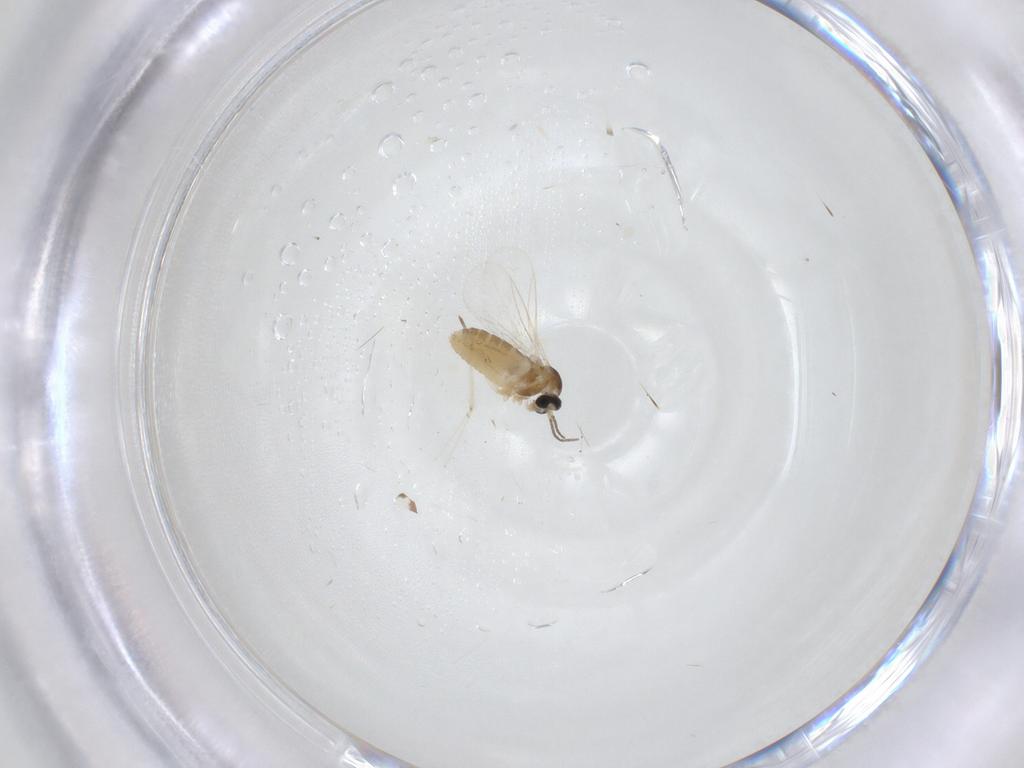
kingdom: Animalia
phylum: Arthropoda
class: Insecta
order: Diptera
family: Cecidomyiidae
